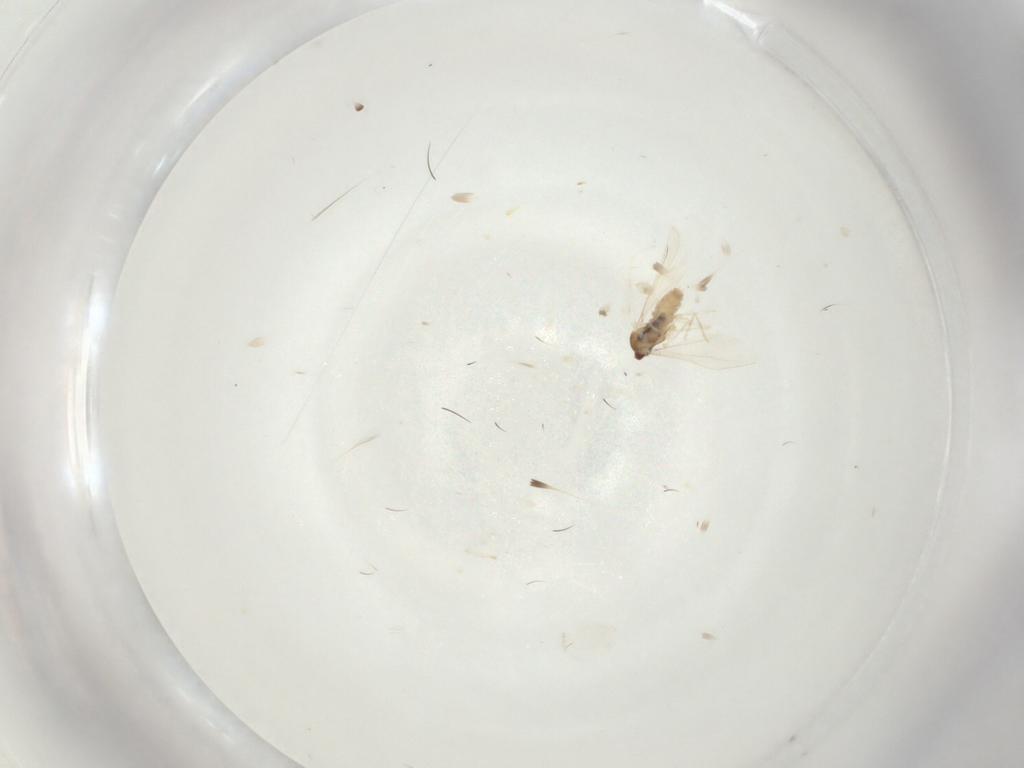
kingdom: Animalia
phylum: Arthropoda
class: Insecta
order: Diptera
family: Cecidomyiidae
